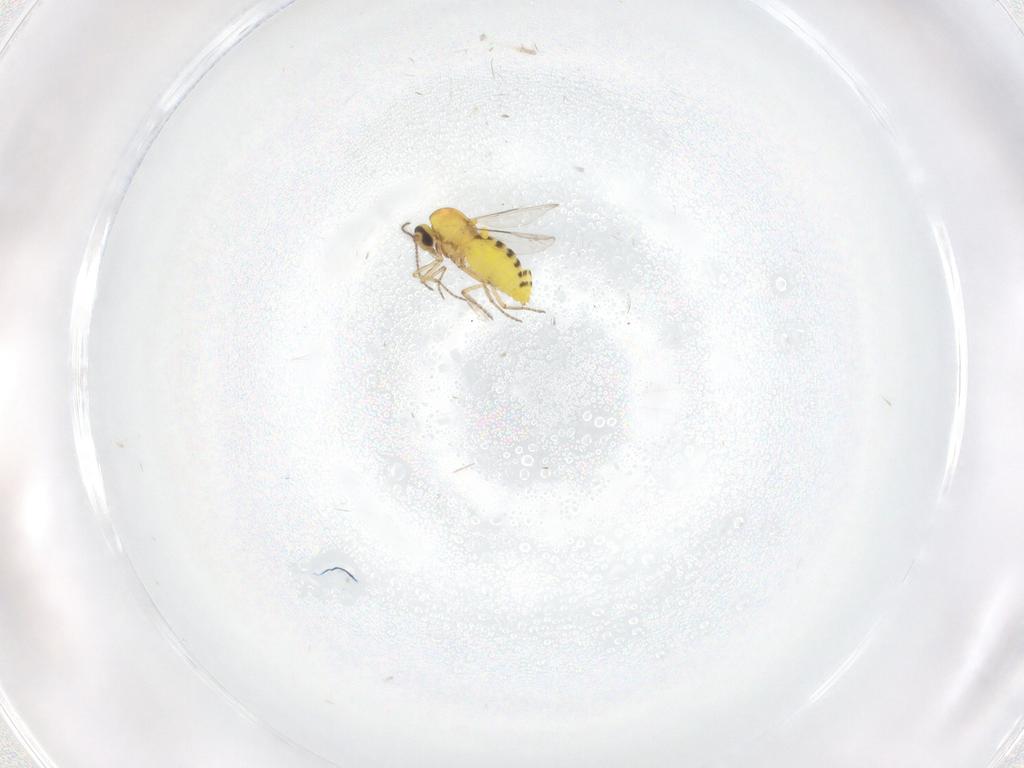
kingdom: Animalia
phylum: Arthropoda
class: Insecta
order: Diptera
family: Ceratopogonidae
